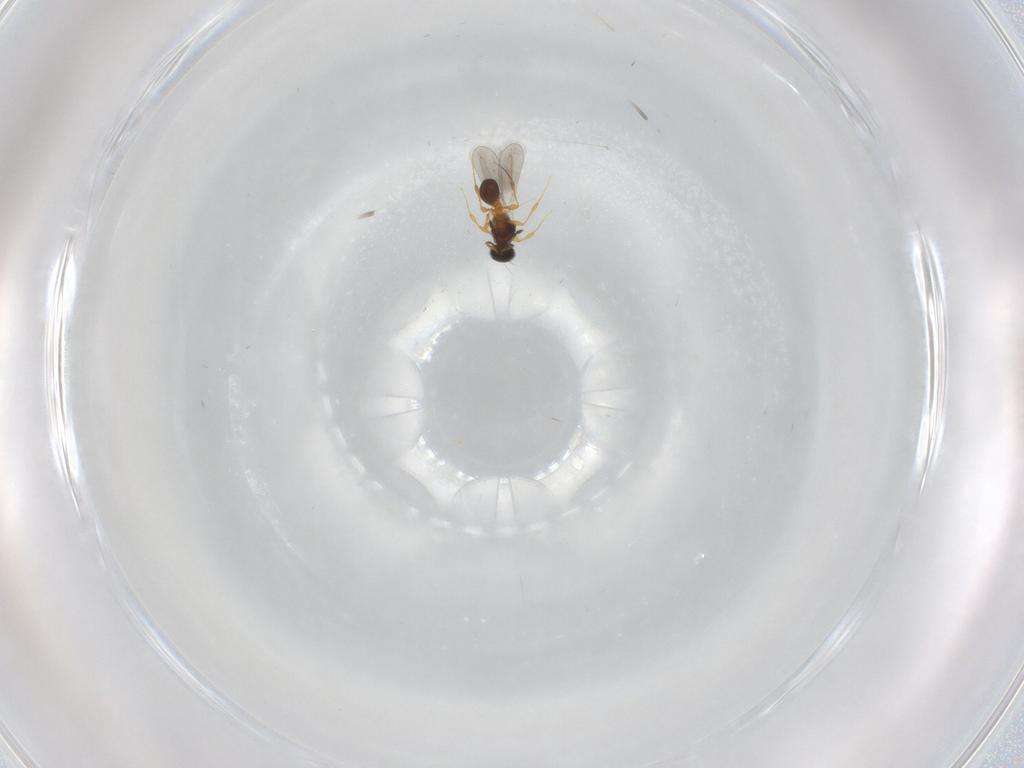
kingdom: Animalia
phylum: Arthropoda
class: Insecta
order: Hymenoptera
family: Platygastridae
